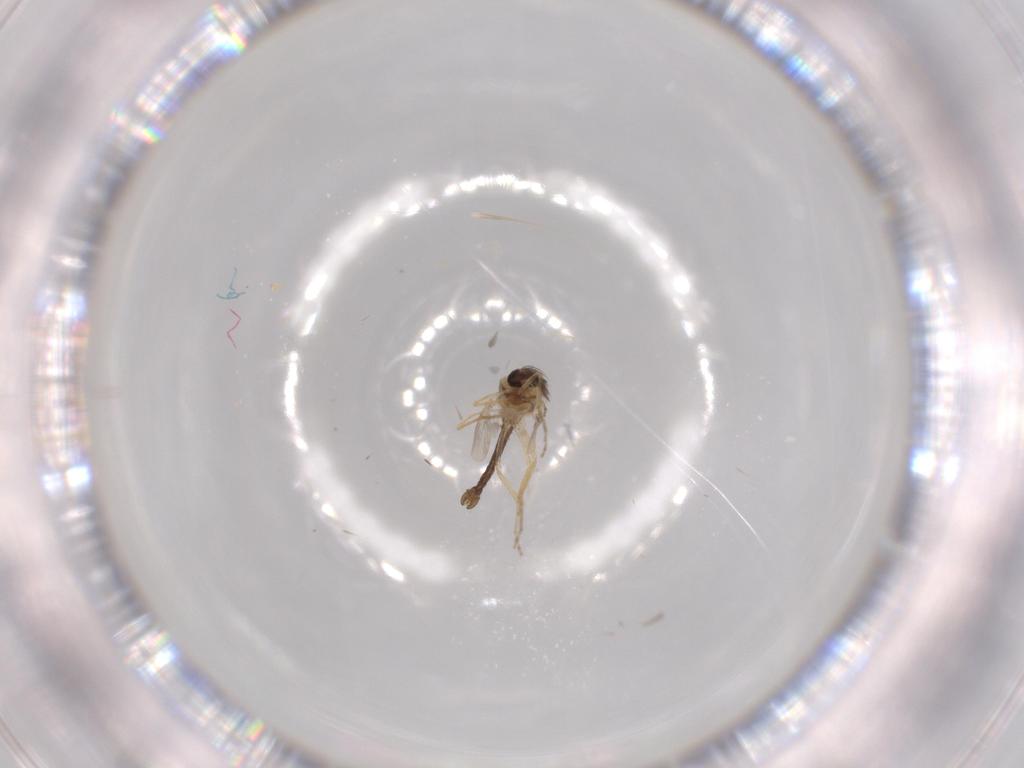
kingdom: Animalia
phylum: Arthropoda
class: Insecta
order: Diptera
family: Ceratopogonidae
